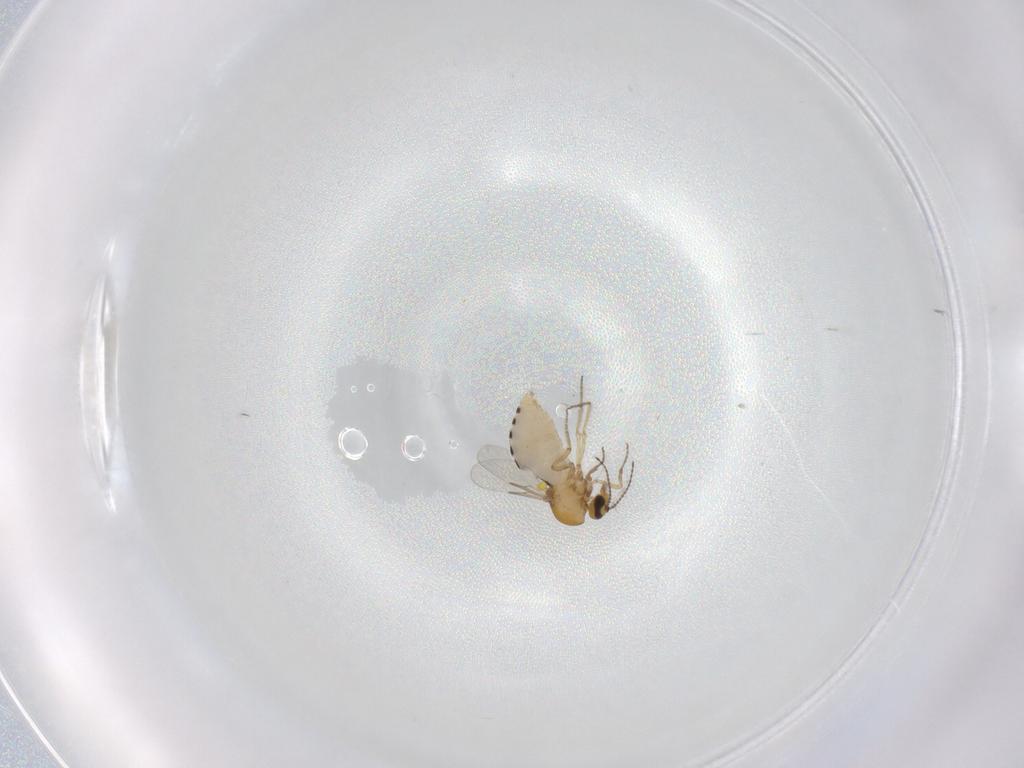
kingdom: Animalia
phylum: Arthropoda
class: Insecta
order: Diptera
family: Ceratopogonidae
